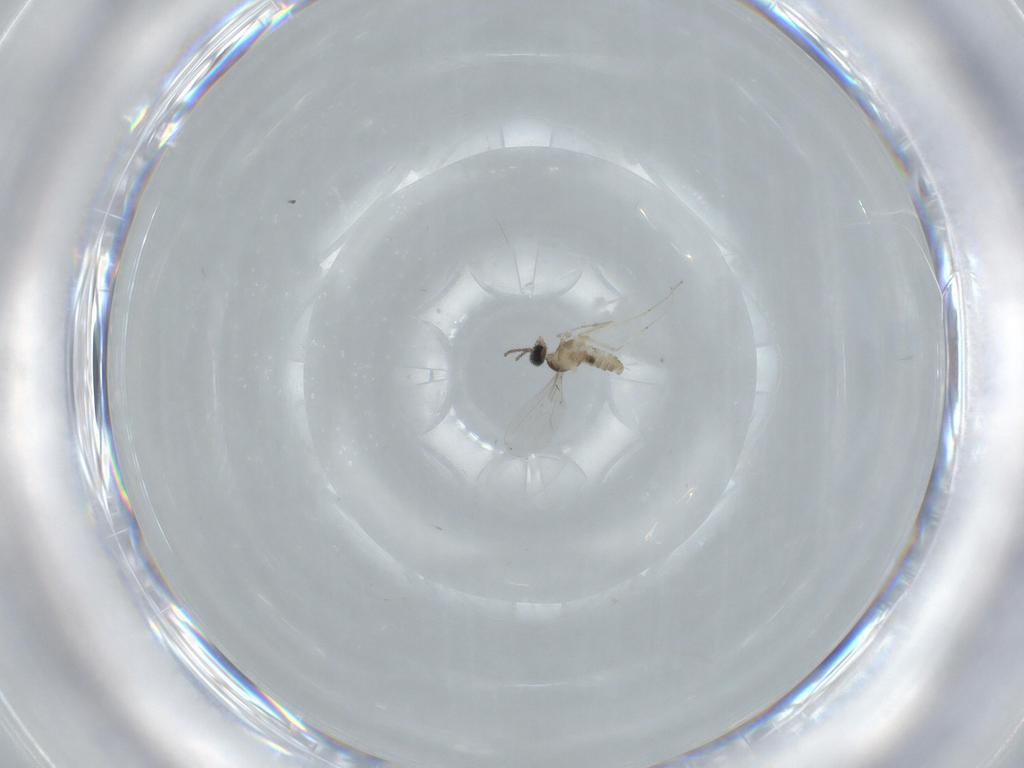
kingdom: Animalia
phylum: Arthropoda
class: Insecta
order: Diptera
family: Cecidomyiidae
